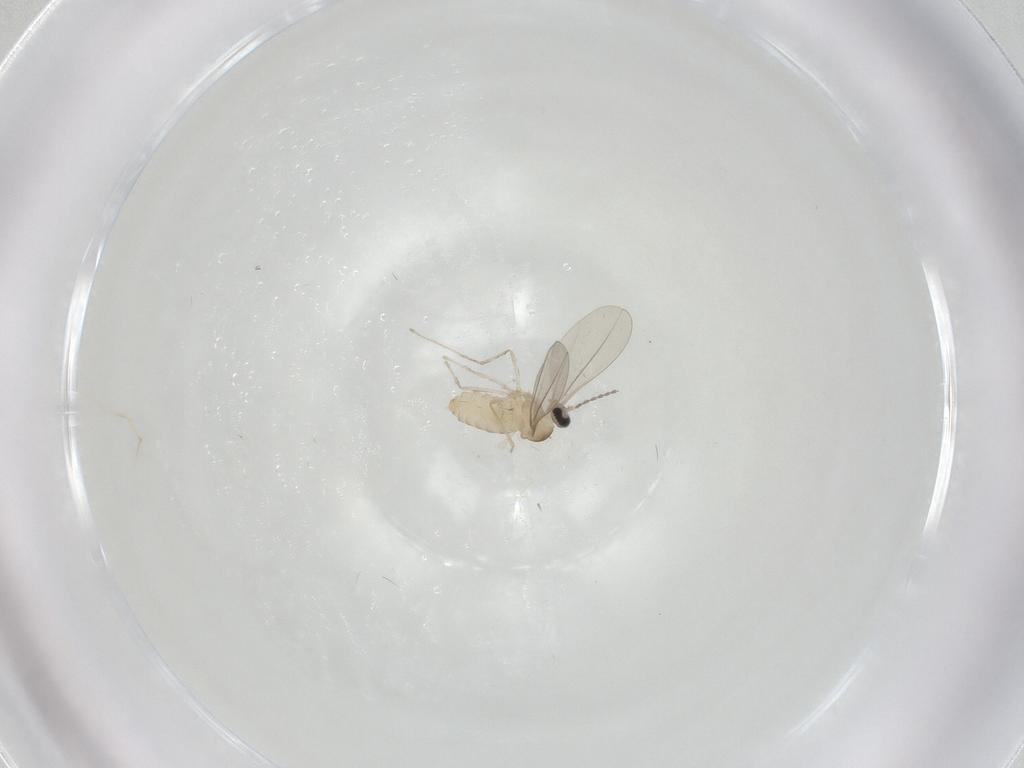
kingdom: Animalia
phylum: Arthropoda
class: Insecta
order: Diptera
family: Cecidomyiidae
